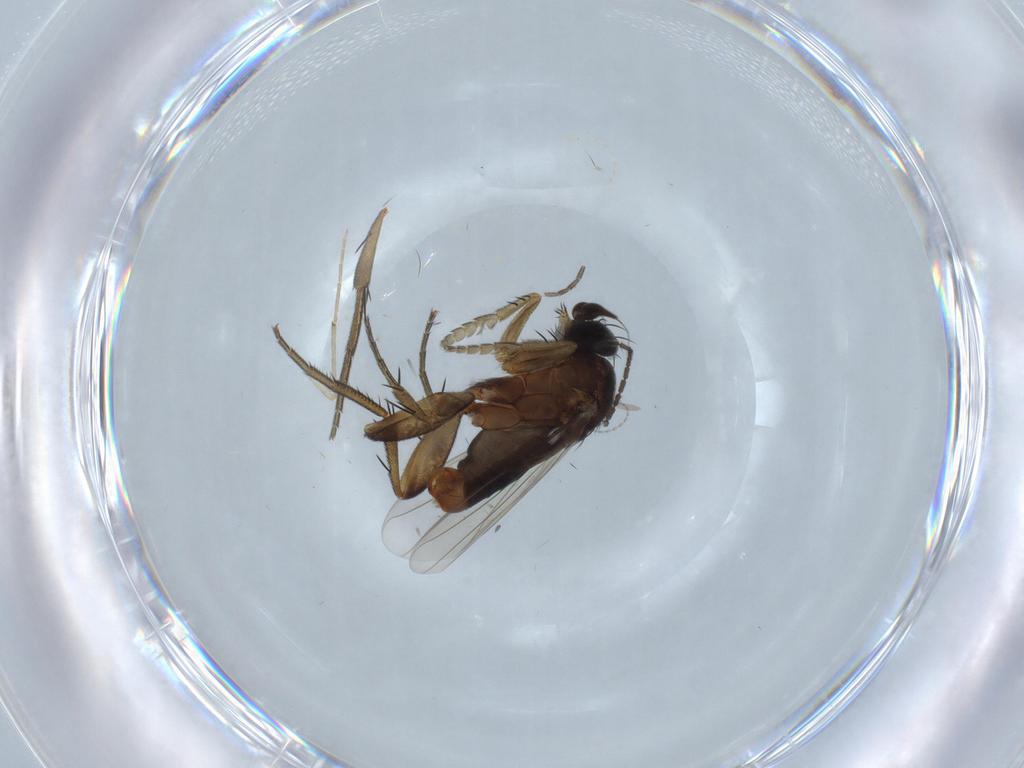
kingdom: Animalia
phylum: Arthropoda
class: Insecta
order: Diptera
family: Phoridae
